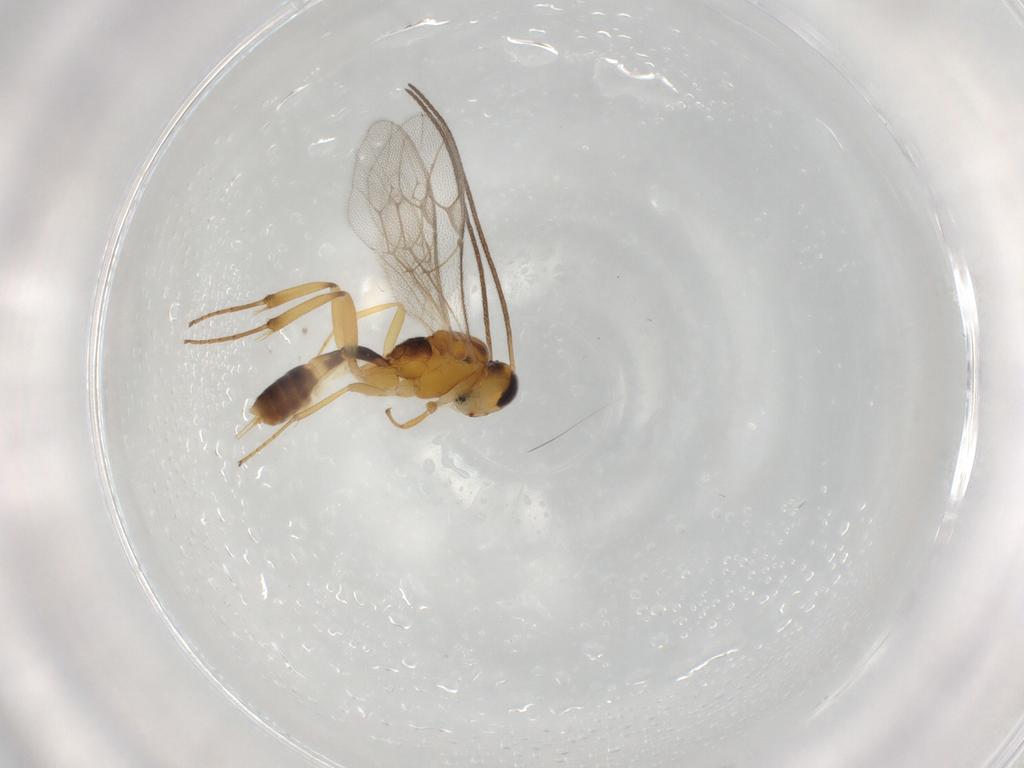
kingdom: Animalia
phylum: Arthropoda
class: Insecta
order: Hymenoptera
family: Ichneumonidae
